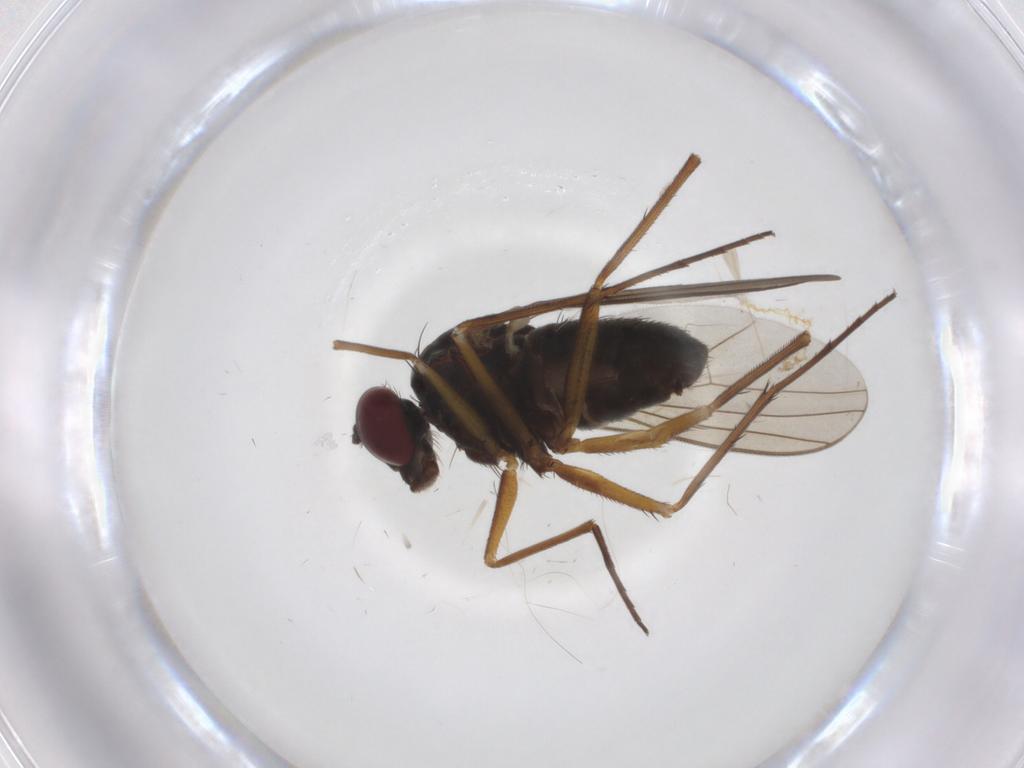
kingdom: Animalia
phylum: Arthropoda
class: Insecta
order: Diptera
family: Dolichopodidae
